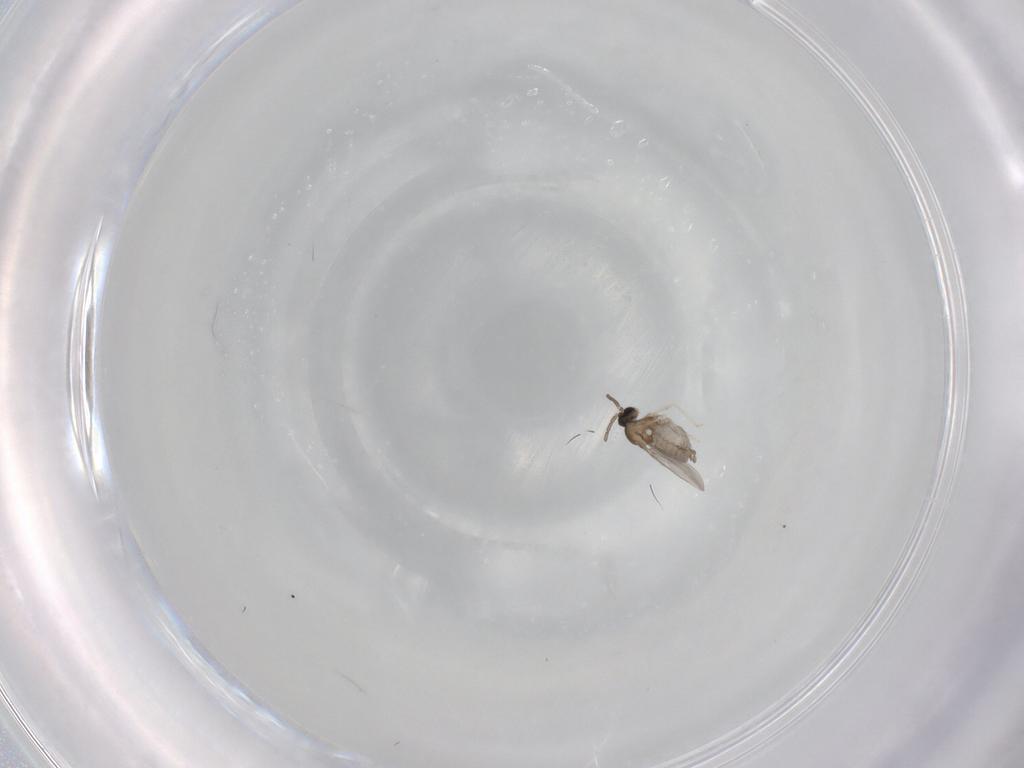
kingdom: Animalia
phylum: Arthropoda
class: Insecta
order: Diptera
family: Cecidomyiidae
